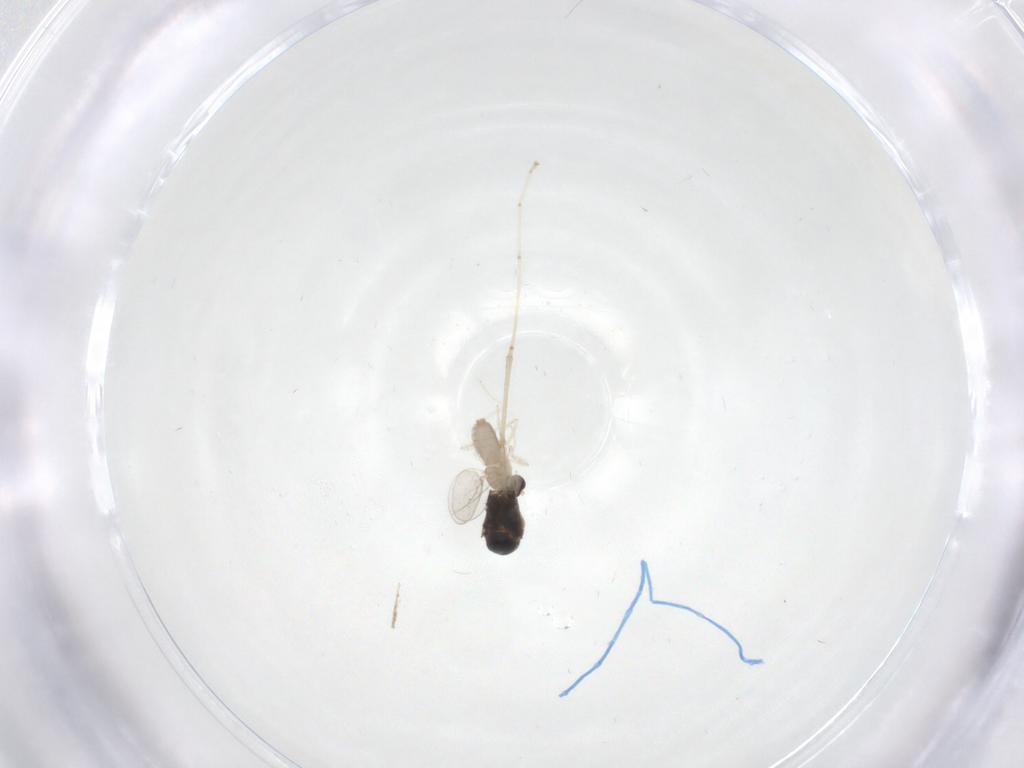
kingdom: Animalia
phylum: Arthropoda
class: Insecta
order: Diptera
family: Cecidomyiidae
